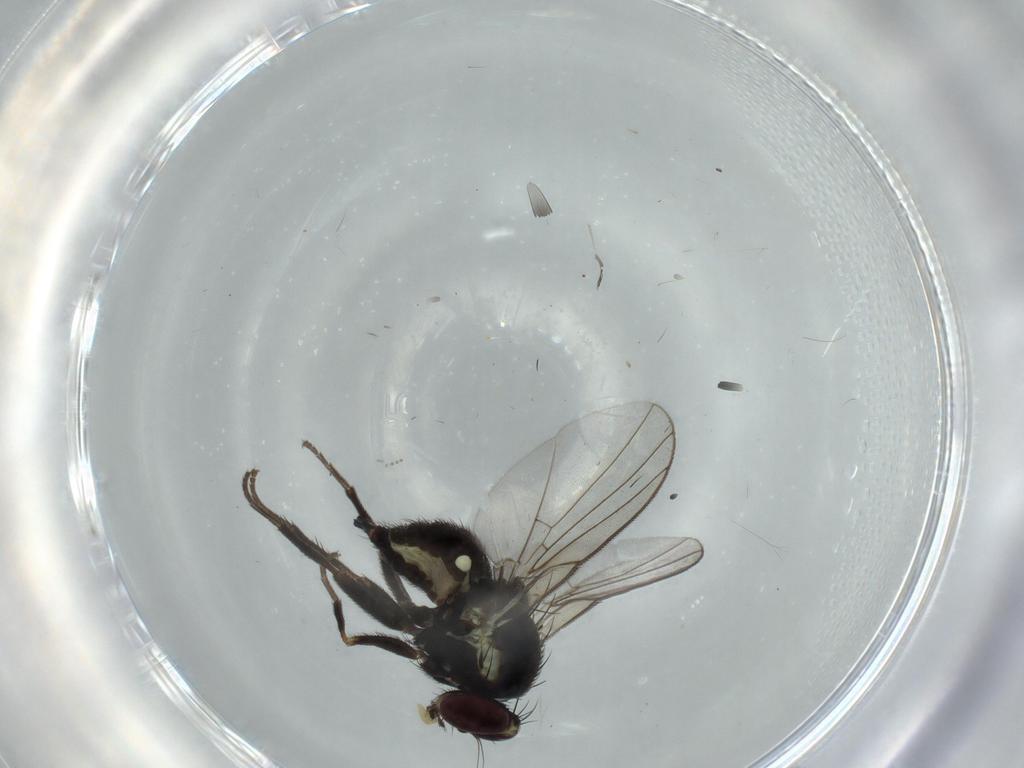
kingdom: Animalia
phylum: Arthropoda
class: Insecta
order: Diptera
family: Agromyzidae
